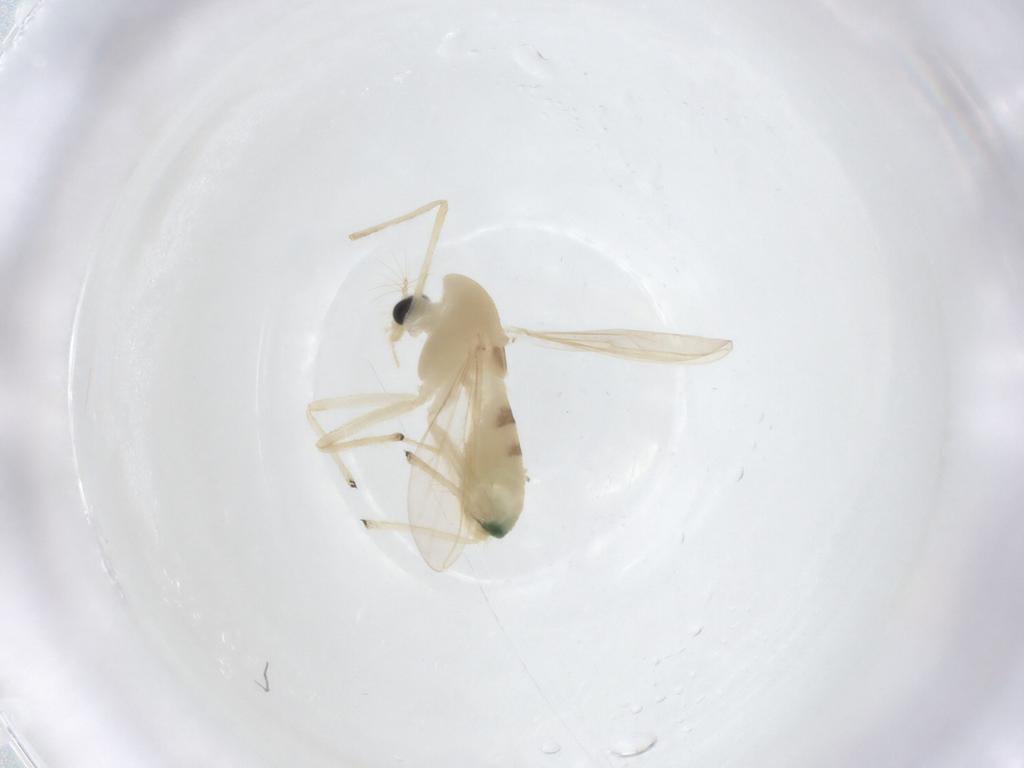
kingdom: Animalia
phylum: Arthropoda
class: Insecta
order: Diptera
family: Chironomidae
